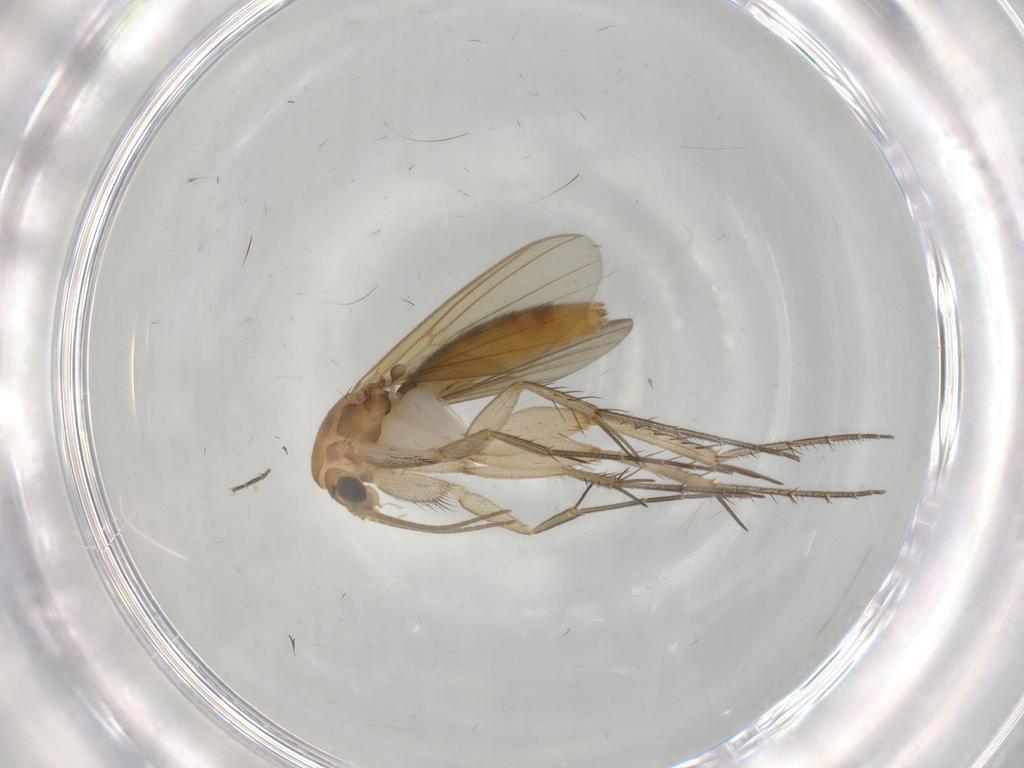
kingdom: Animalia
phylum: Arthropoda
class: Insecta
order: Diptera
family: Mycetophilidae
